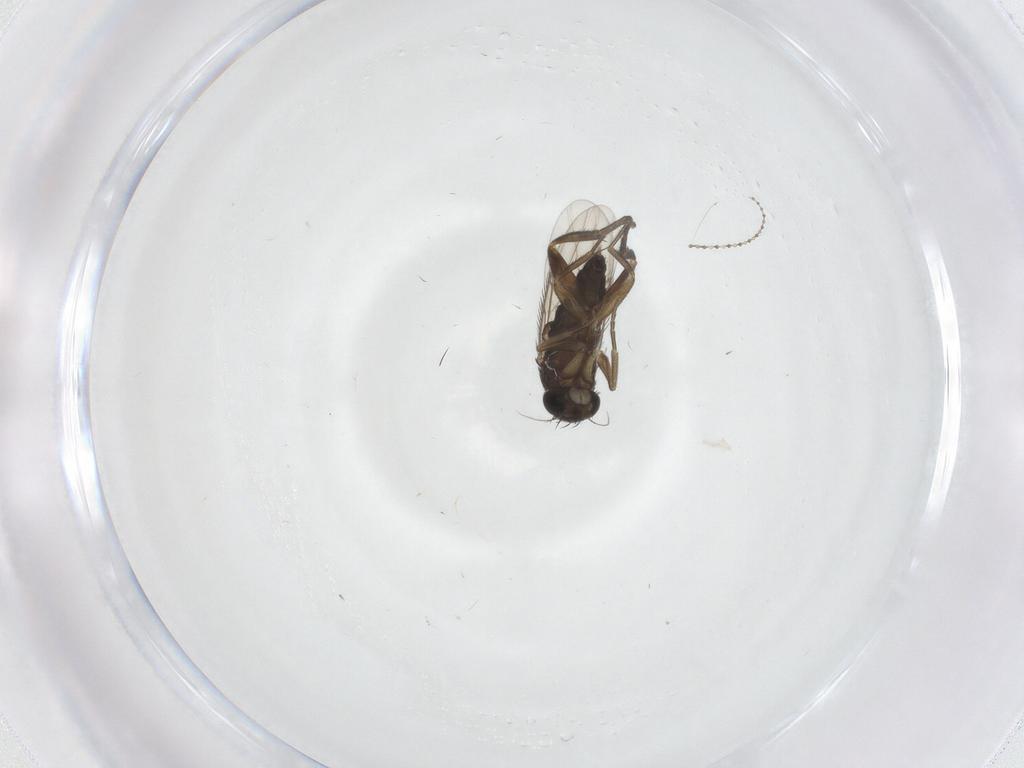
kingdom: Animalia
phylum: Arthropoda
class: Insecta
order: Diptera
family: Phoridae
